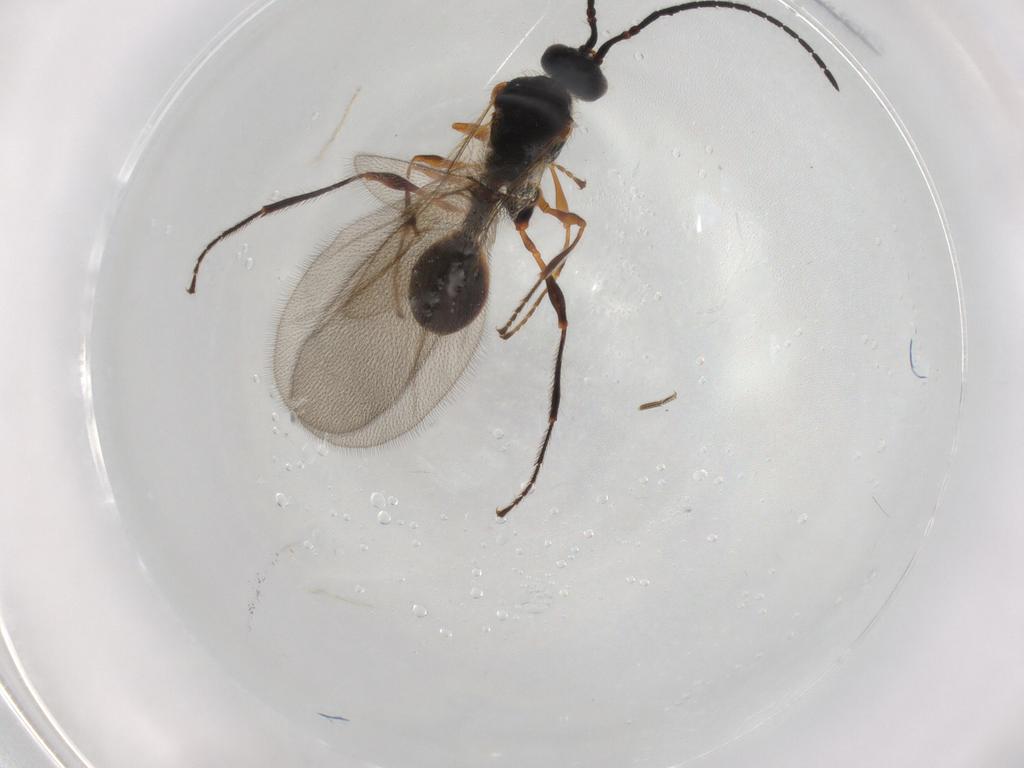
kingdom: Animalia
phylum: Arthropoda
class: Insecta
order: Hymenoptera
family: Diapriidae
